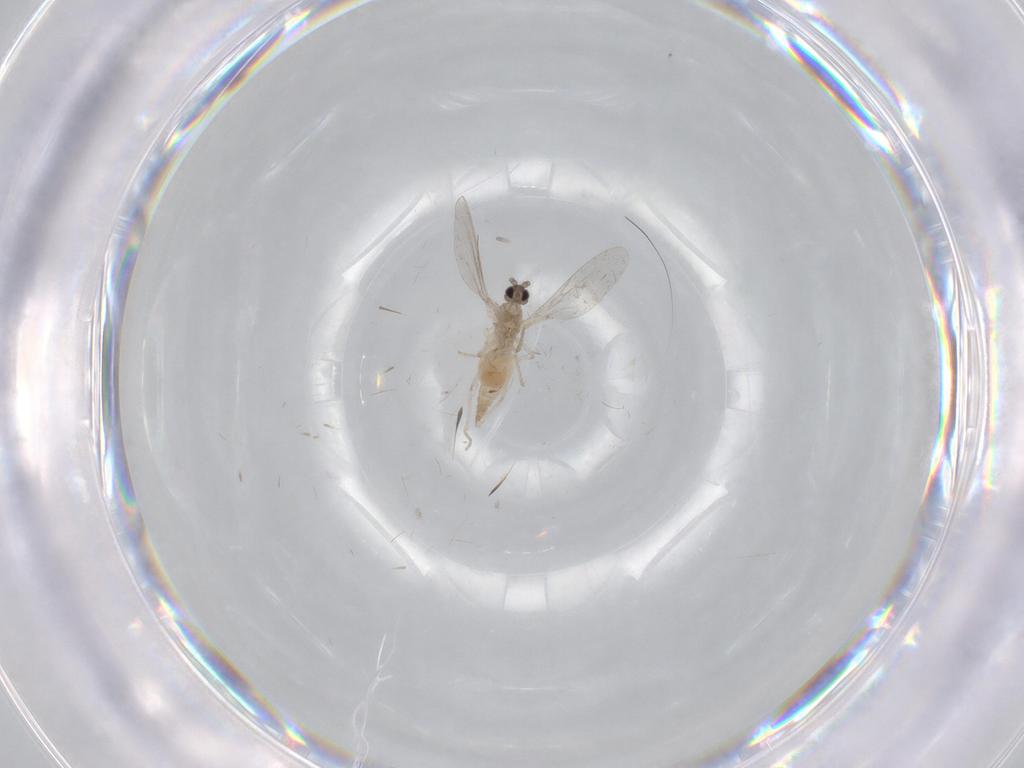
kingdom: Animalia
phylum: Arthropoda
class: Insecta
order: Diptera
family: Cecidomyiidae
